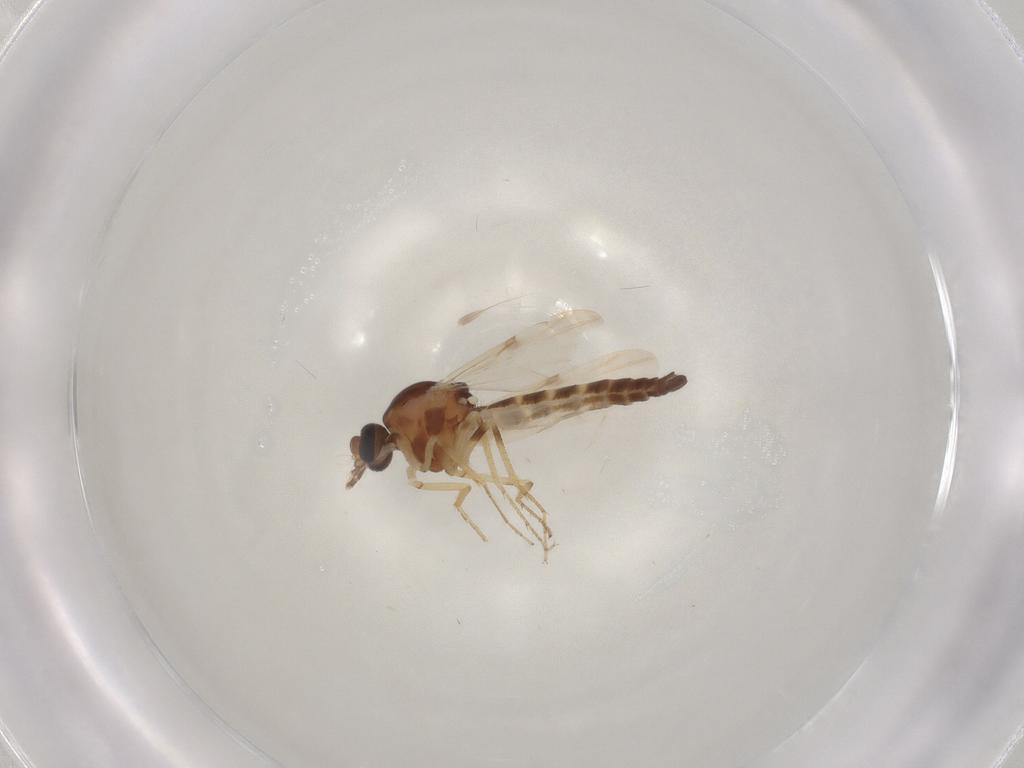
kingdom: Animalia
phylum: Arthropoda
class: Insecta
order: Diptera
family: Ceratopogonidae
